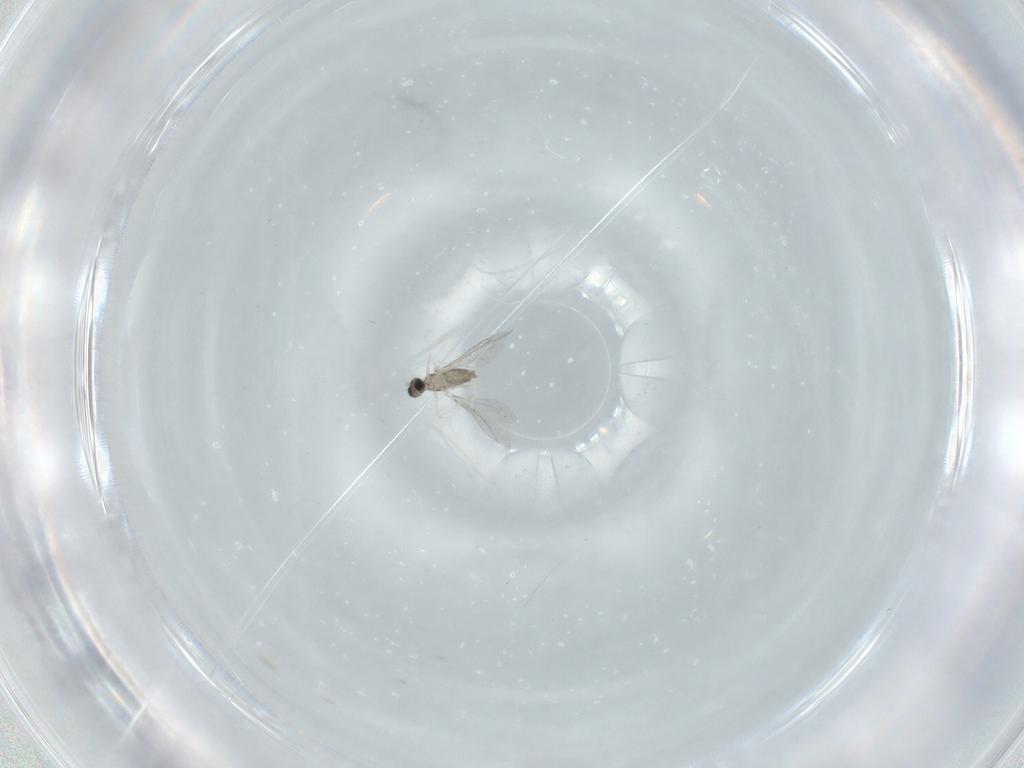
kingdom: Animalia
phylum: Arthropoda
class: Insecta
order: Diptera
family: Cecidomyiidae
